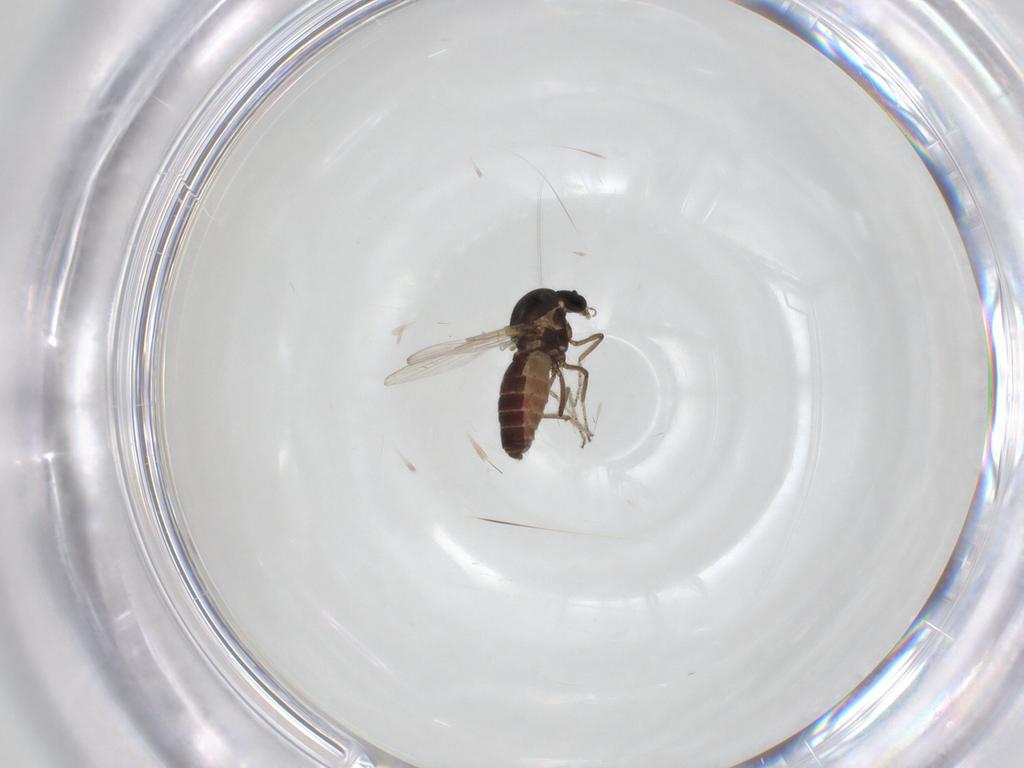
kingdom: Animalia
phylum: Arthropoda
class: Insecta
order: Diptera
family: Ceratopogonidae
